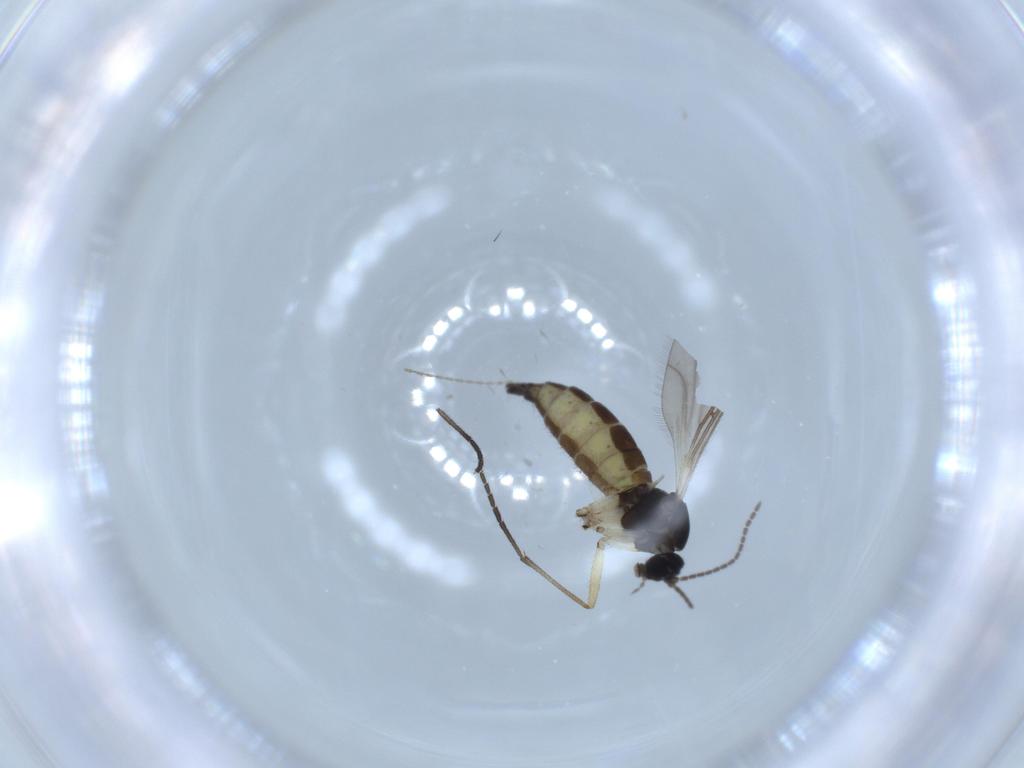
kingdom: Animalia
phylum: Arthropoda
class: Insecta
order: Diptera
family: Sciaridae
